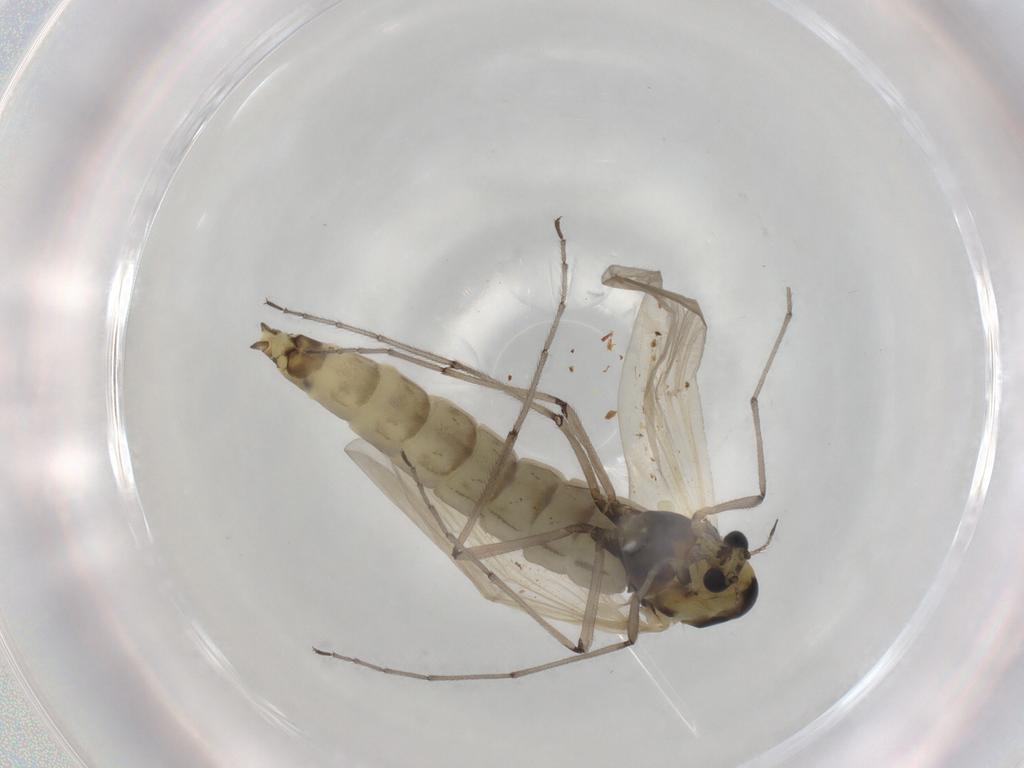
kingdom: Animalia
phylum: Arthropoda
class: Insecta
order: Diptera
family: Chironomidae
